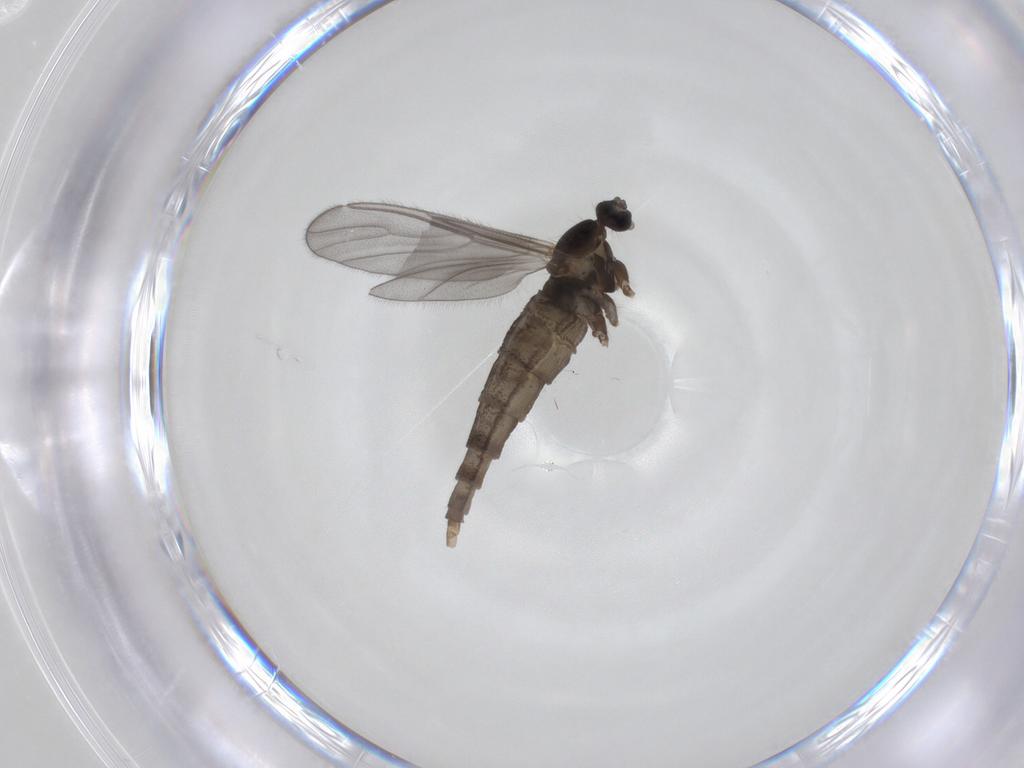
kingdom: Animalia
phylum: Arthropoda
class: Insecta
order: Diptera
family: Cecidomyiidae
